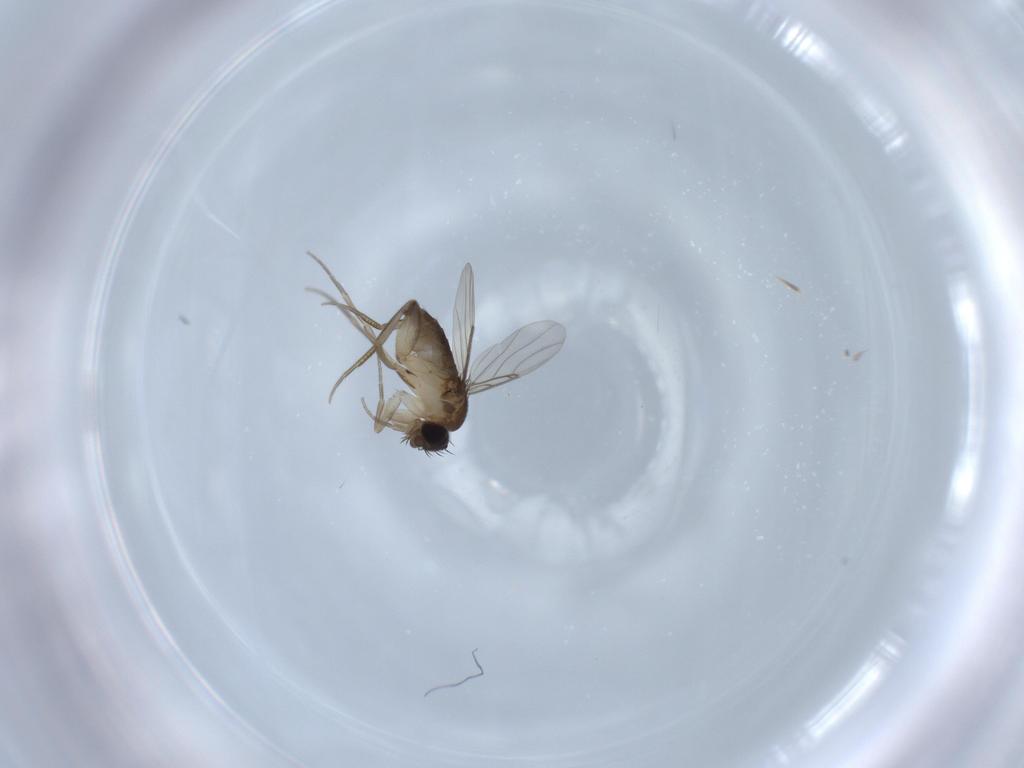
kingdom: Animalia
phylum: Arthropoda
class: Insecta
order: Diptera
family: Phoridae
